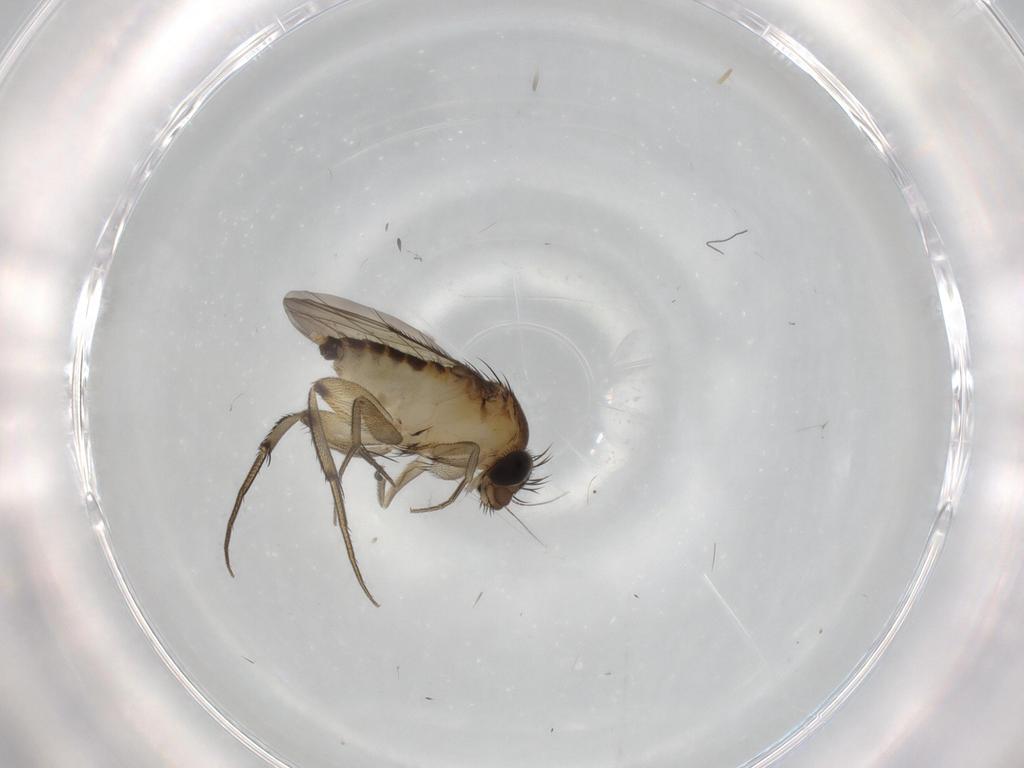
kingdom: Animalia
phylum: Arthropoda
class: Insecta
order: Diptera
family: Phoridae
